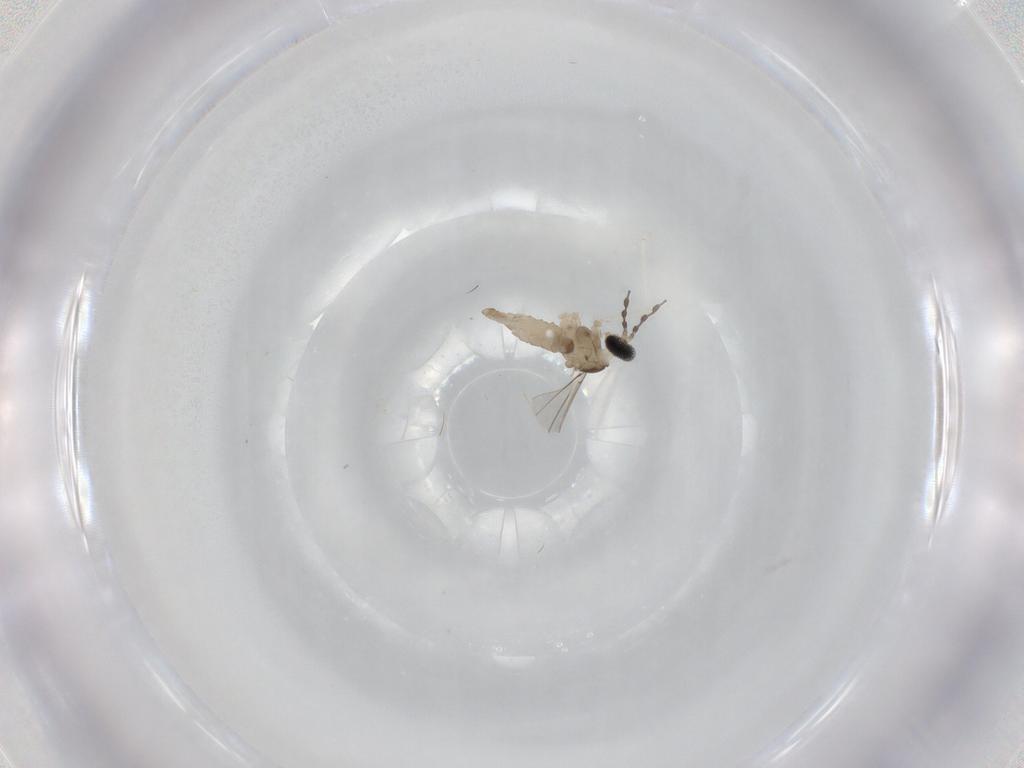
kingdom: Animalia
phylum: Arthropoda
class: Insecta
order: Diptera
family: Cecidomyiidae
